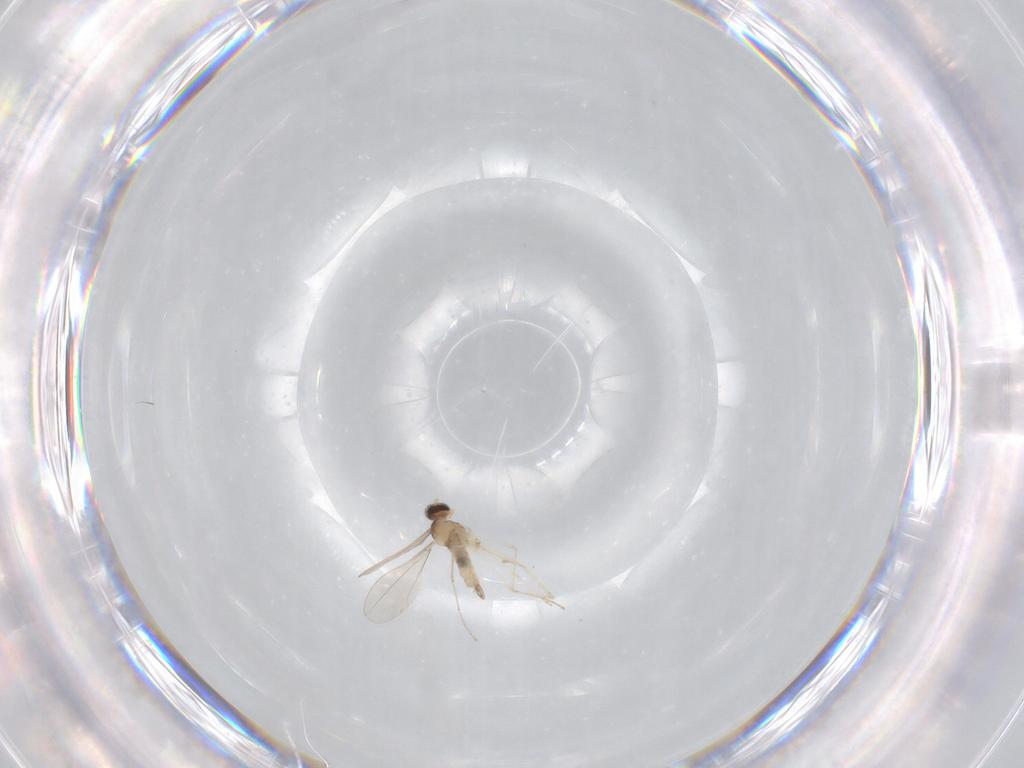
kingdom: Animalia
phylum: Arthropoda
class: Insecta
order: Diptera
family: Cecidomyiidae
